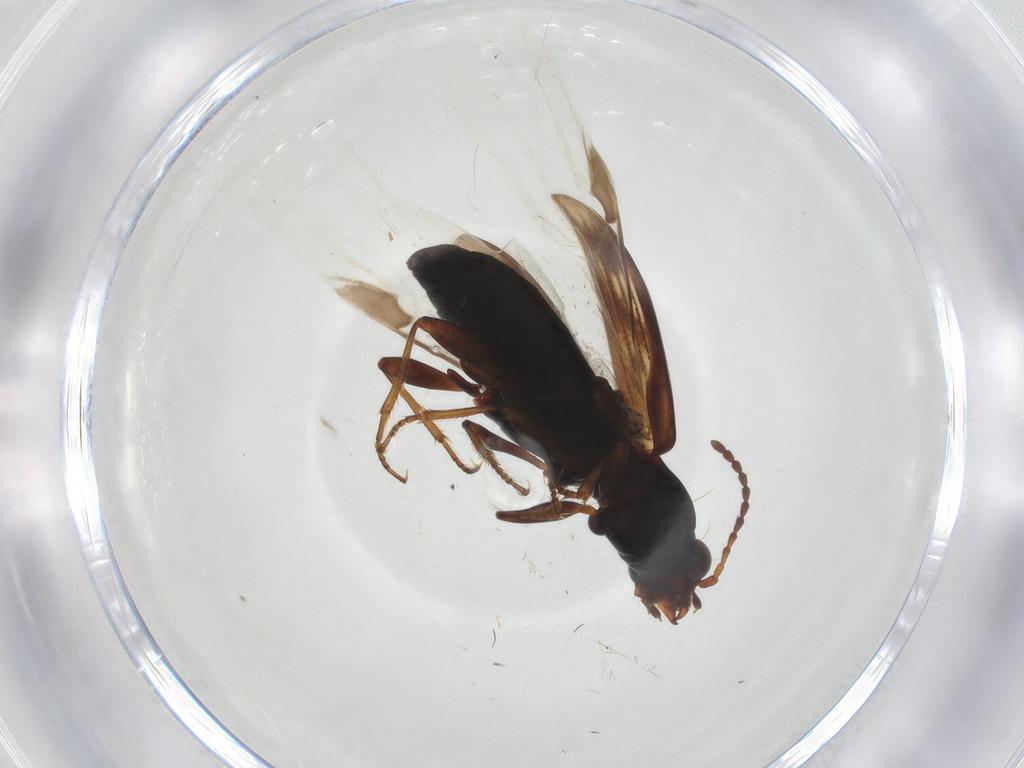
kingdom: Animalia
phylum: Arthropoda
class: Insecta
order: Coleoptera
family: Carabidae
